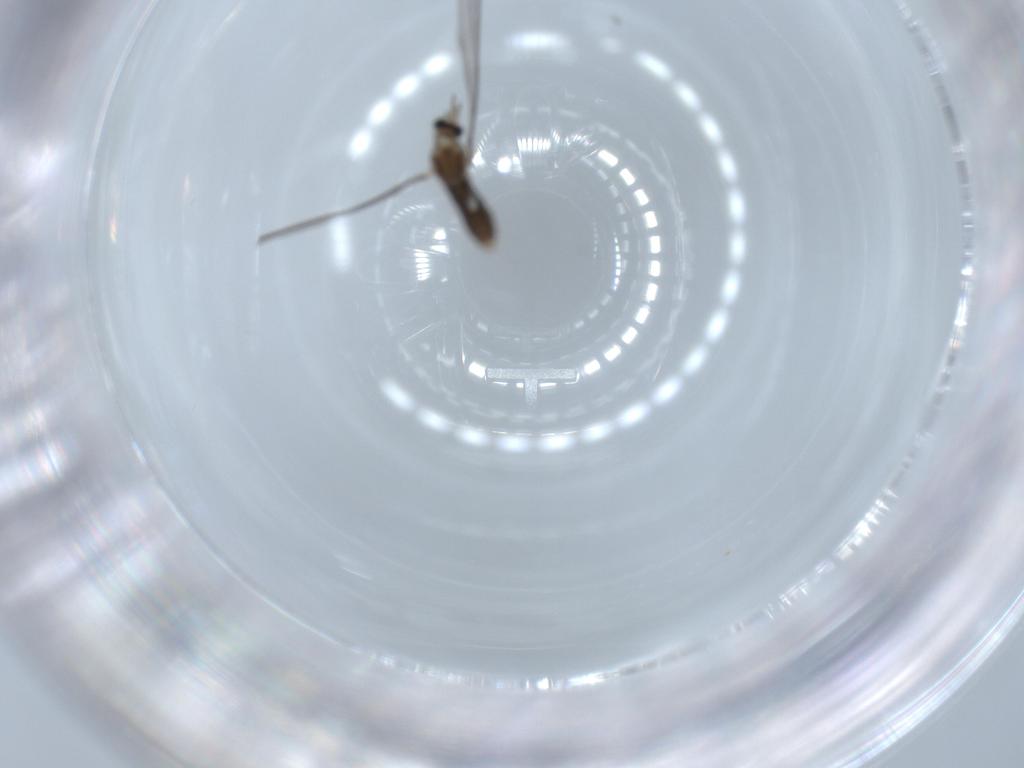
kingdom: Animalia
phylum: Arthropoda
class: Insecta
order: Diptera
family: Cecidomyiidae
